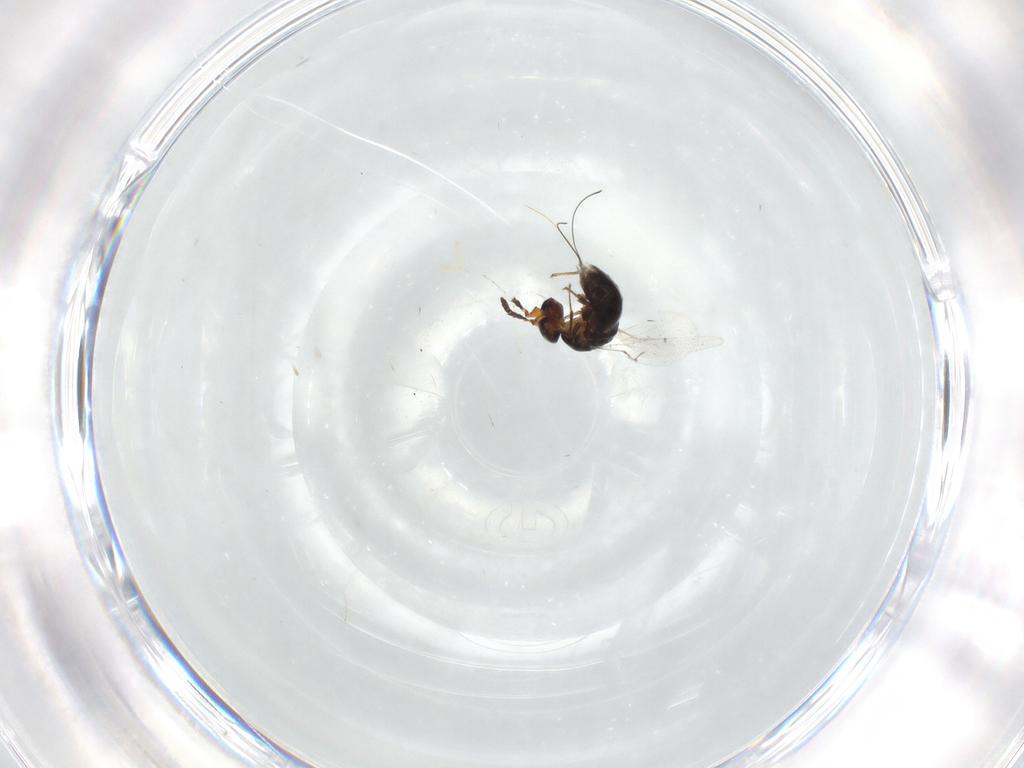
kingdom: Animalia
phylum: Arthropoda
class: Insecta
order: Hymenoptera
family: Agaonidae
